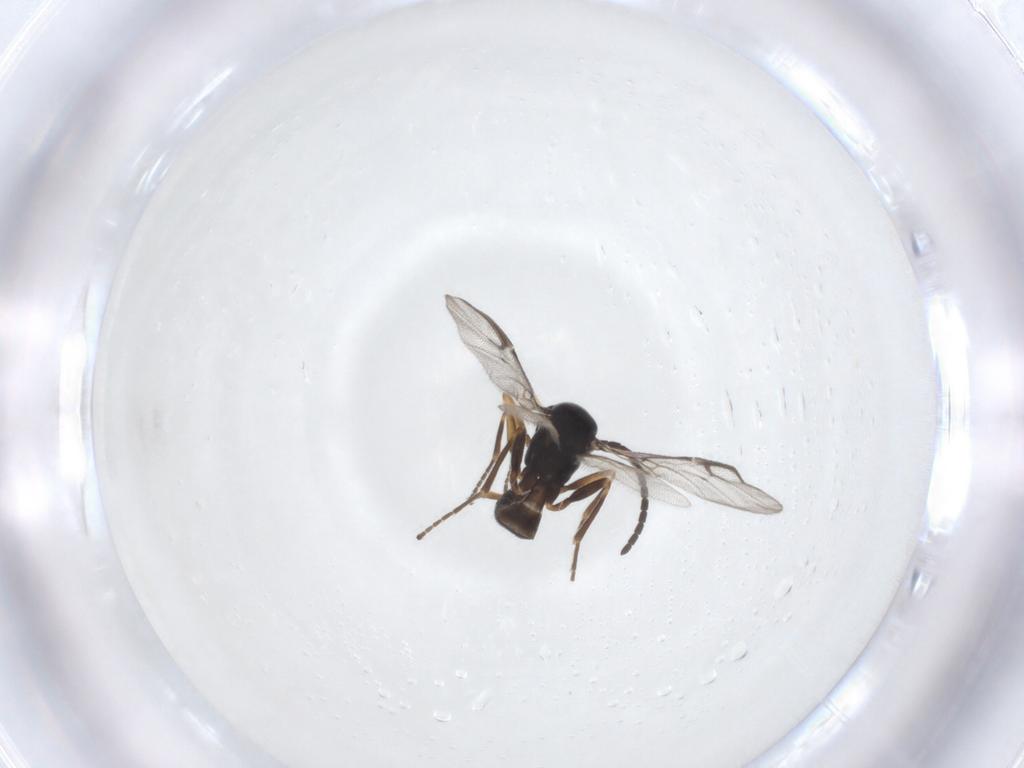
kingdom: Animalia
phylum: Arthropoda
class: Insecta
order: Hymenoptera
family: Braconidae
